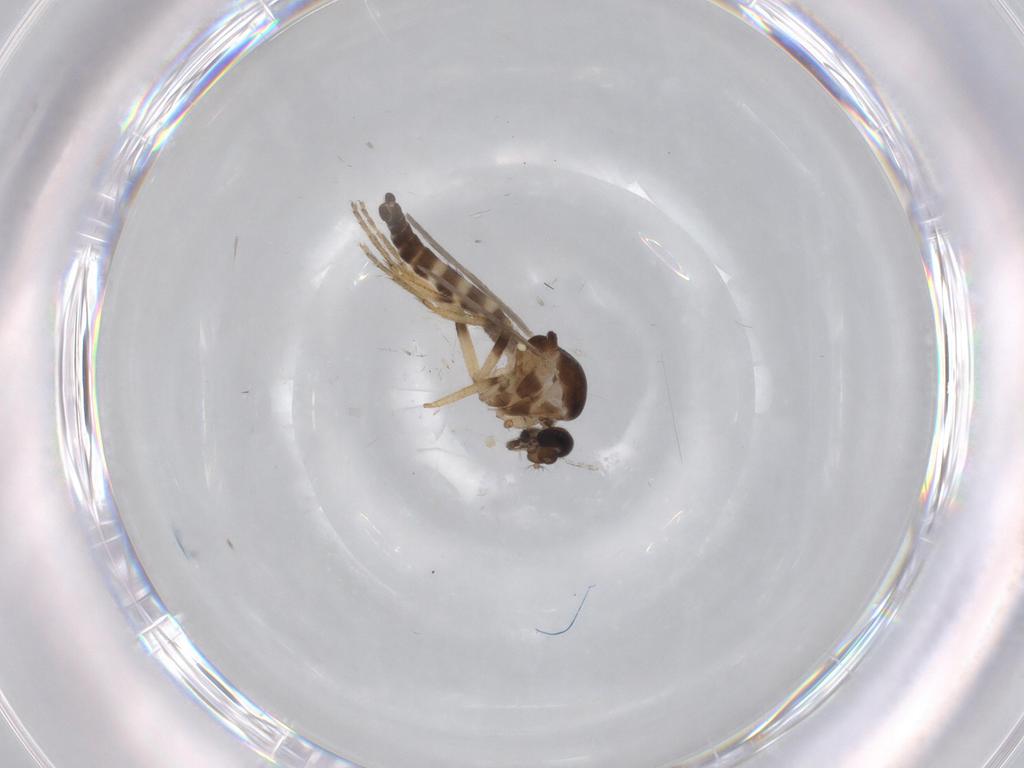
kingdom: Animalia
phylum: Arthropoda
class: Insecta
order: Diptera
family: Ceratopogonidae
